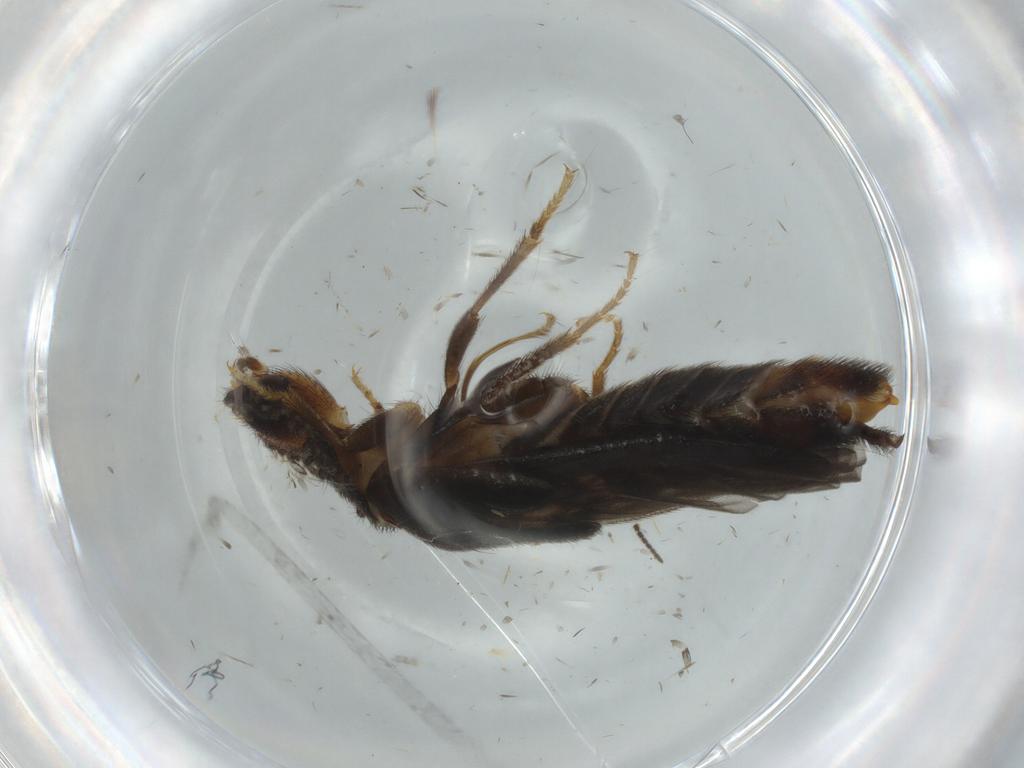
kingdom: Animalia
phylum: Arthropoda
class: Insecta
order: Coleoptera
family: Phengodidae
